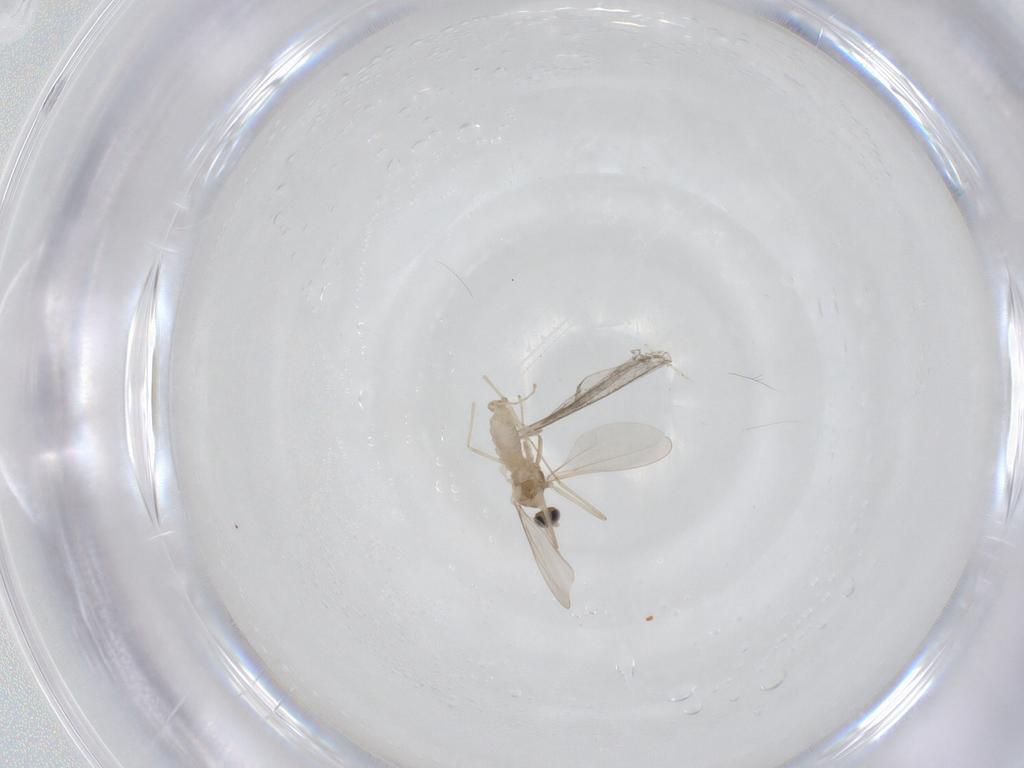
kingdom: Animalia
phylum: Arthropoda
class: Insecta
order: Diptera
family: Cecidomyiidae
